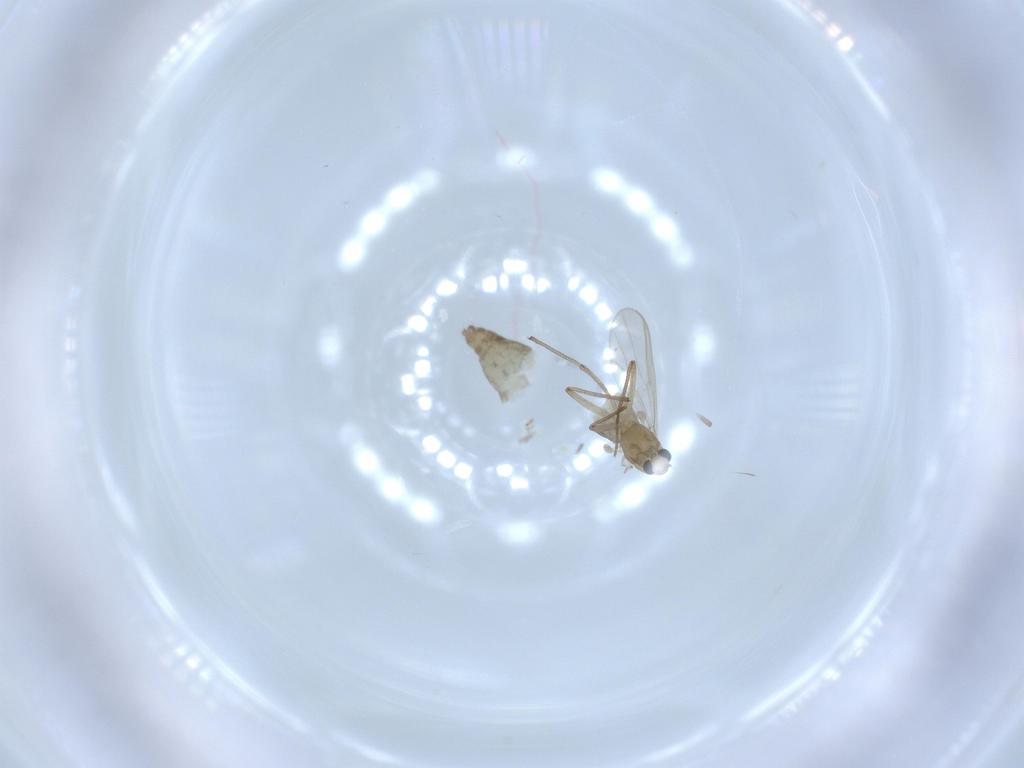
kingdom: Animalia
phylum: Arthropoda
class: Insecta
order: Diptera
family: Chironomidae
